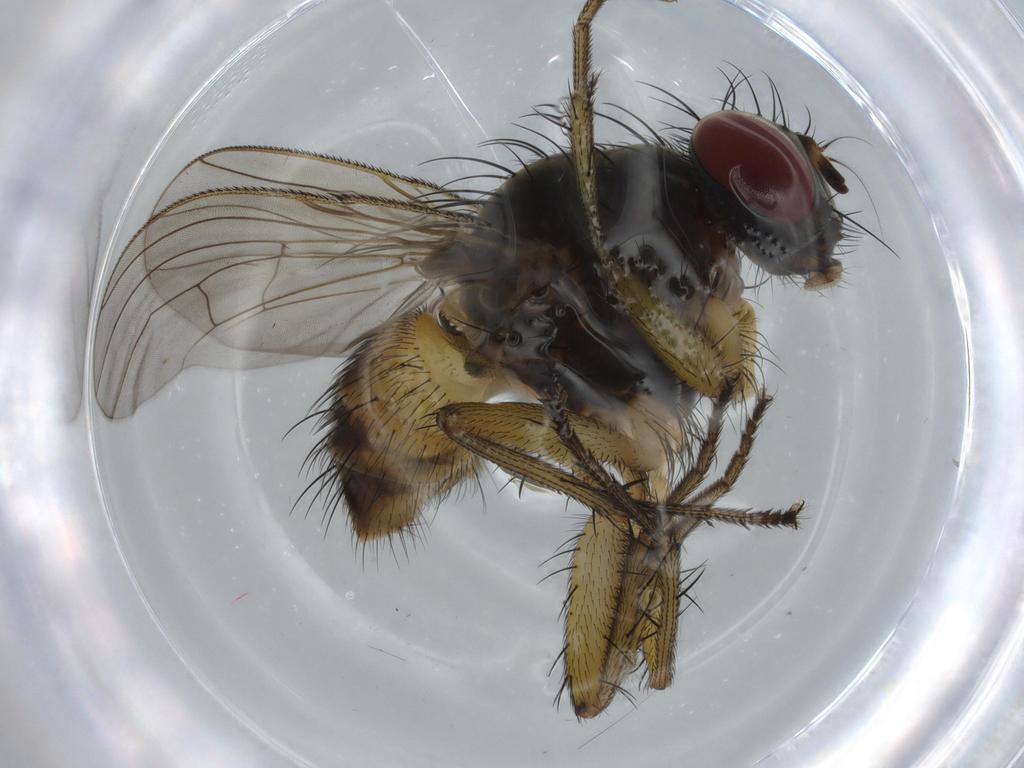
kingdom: Animalia
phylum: Arthropoda
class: Insecta
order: Diptera
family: Muscidae
